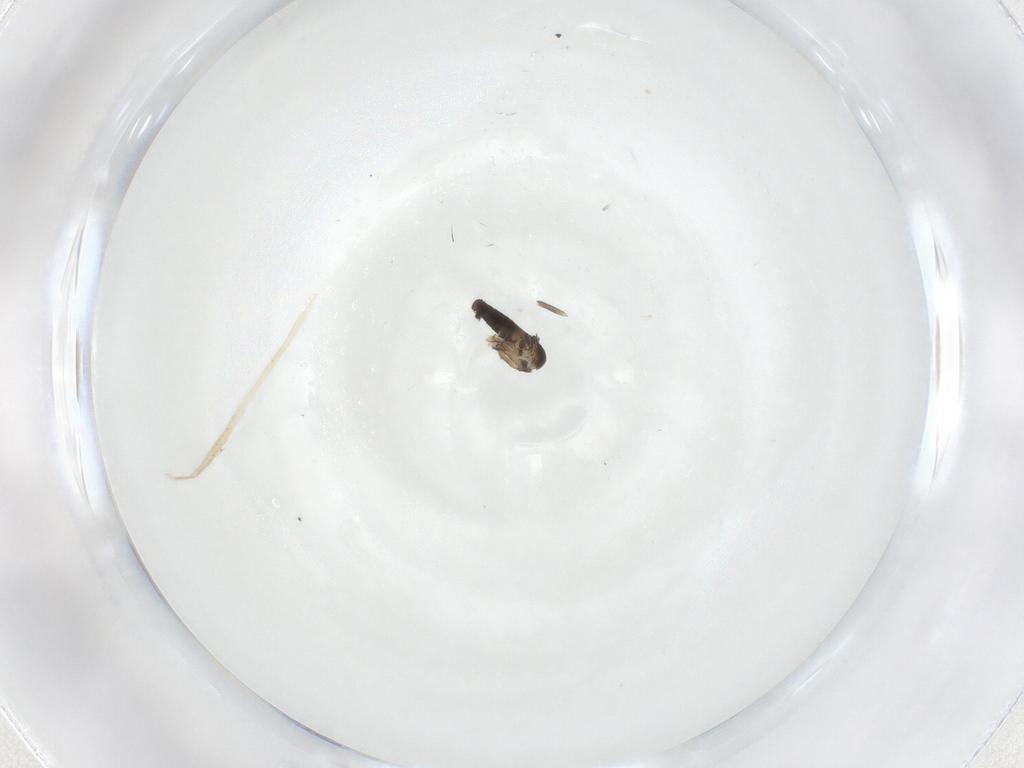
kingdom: Animalia
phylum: Arthropoda
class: Insecta
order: Diptera
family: Phoridae
